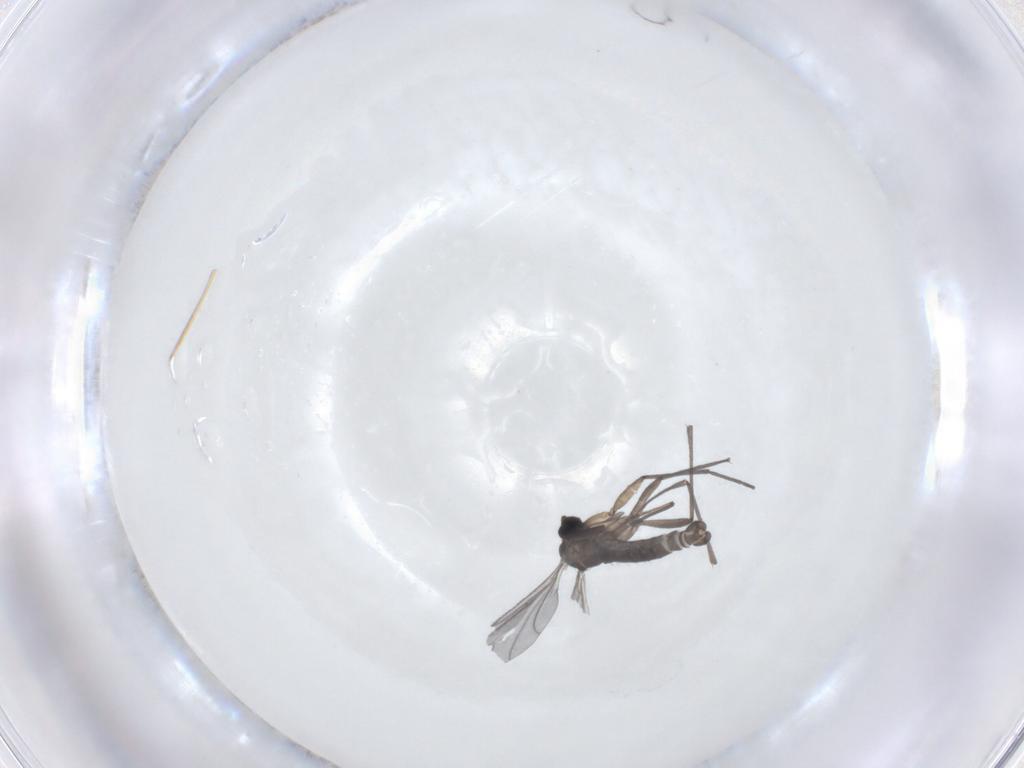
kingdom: Animalia
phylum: Arthropoda
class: Insecta
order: Diptera
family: Anthomyiidae
